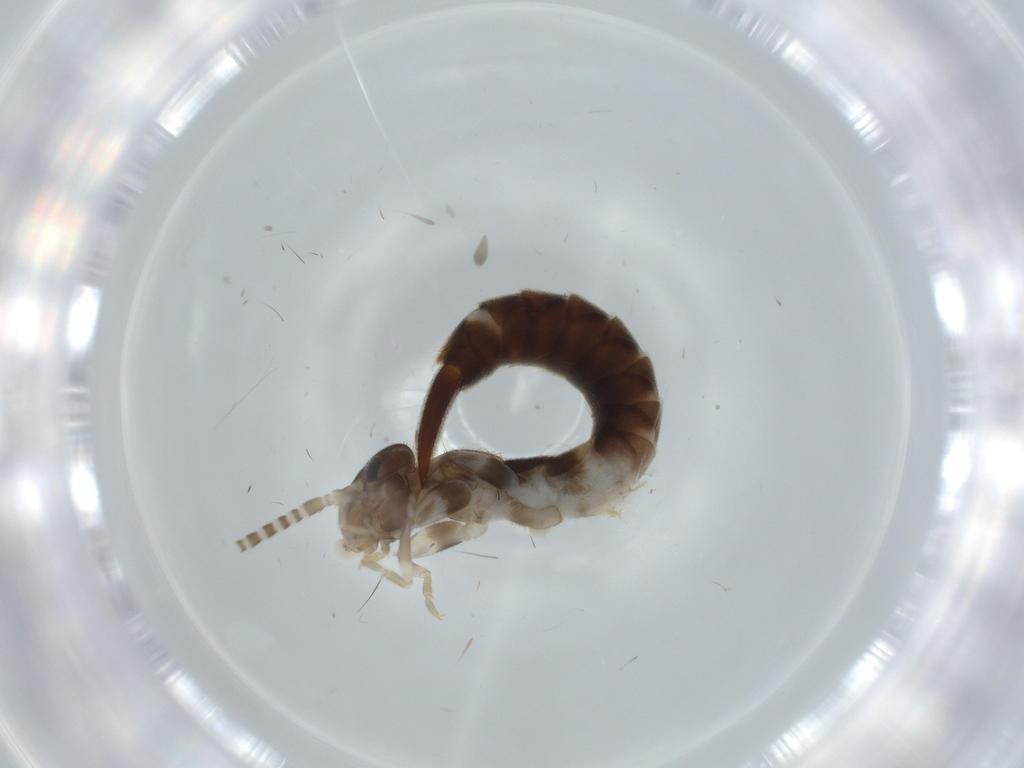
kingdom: Animalia
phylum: Arthropoda
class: Insecta
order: Dermaptera
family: Forficulidae
